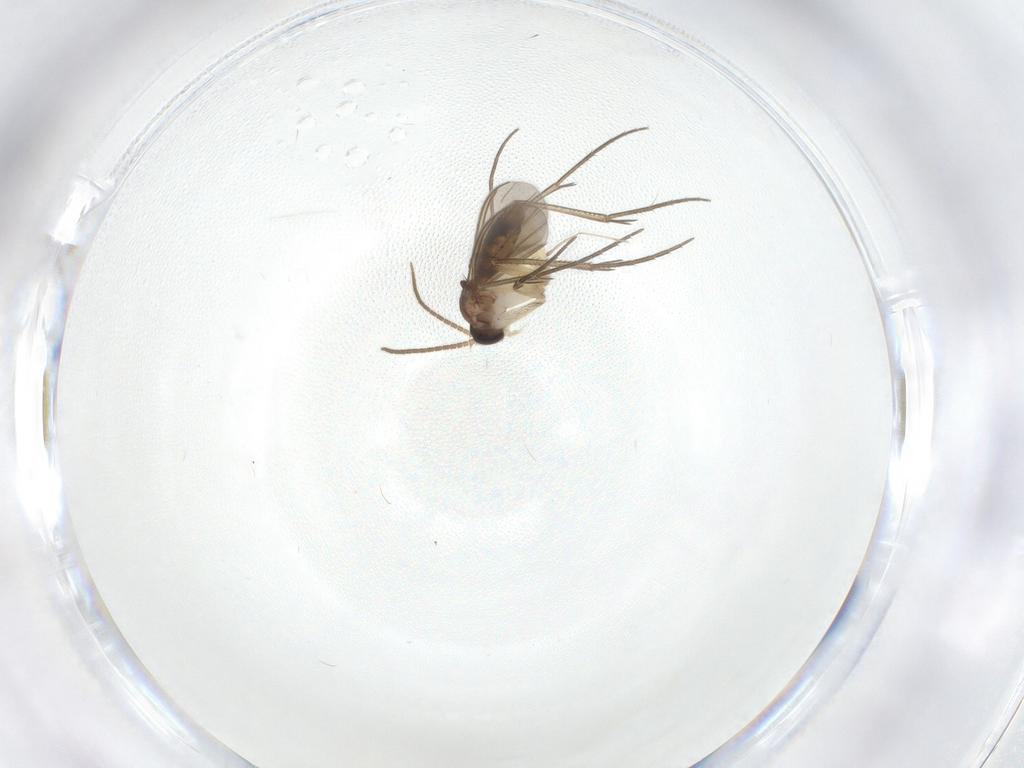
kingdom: Animalia
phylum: Arthropoda
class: Insecta
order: Diptera
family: Mycetophilidae
